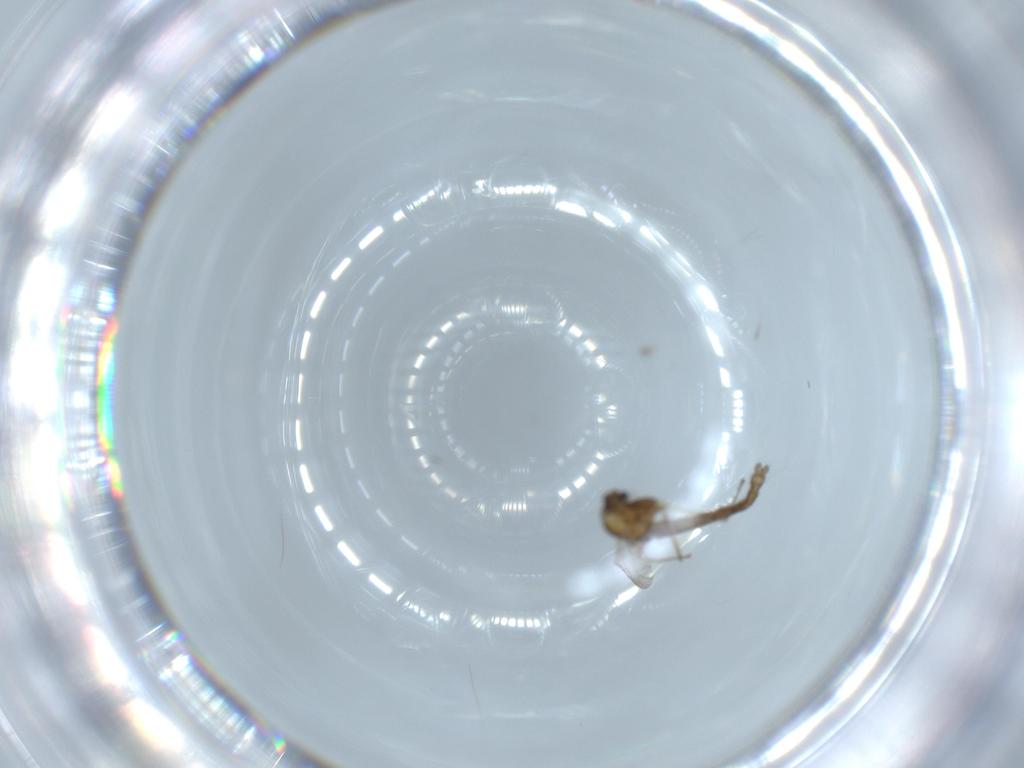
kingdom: Animalia
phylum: Arthropoda
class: Insecta
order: Diptera
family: Chironomidae
